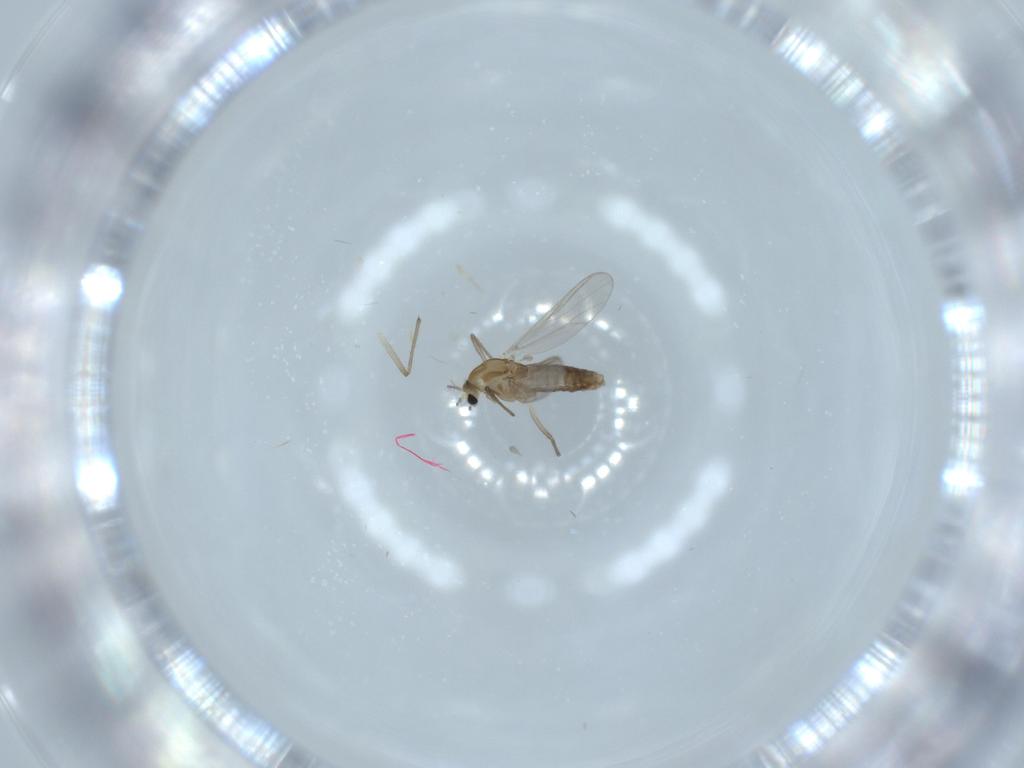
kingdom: Animalia
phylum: Arthropoda
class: Insecta
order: Diptera
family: Chironomidae
